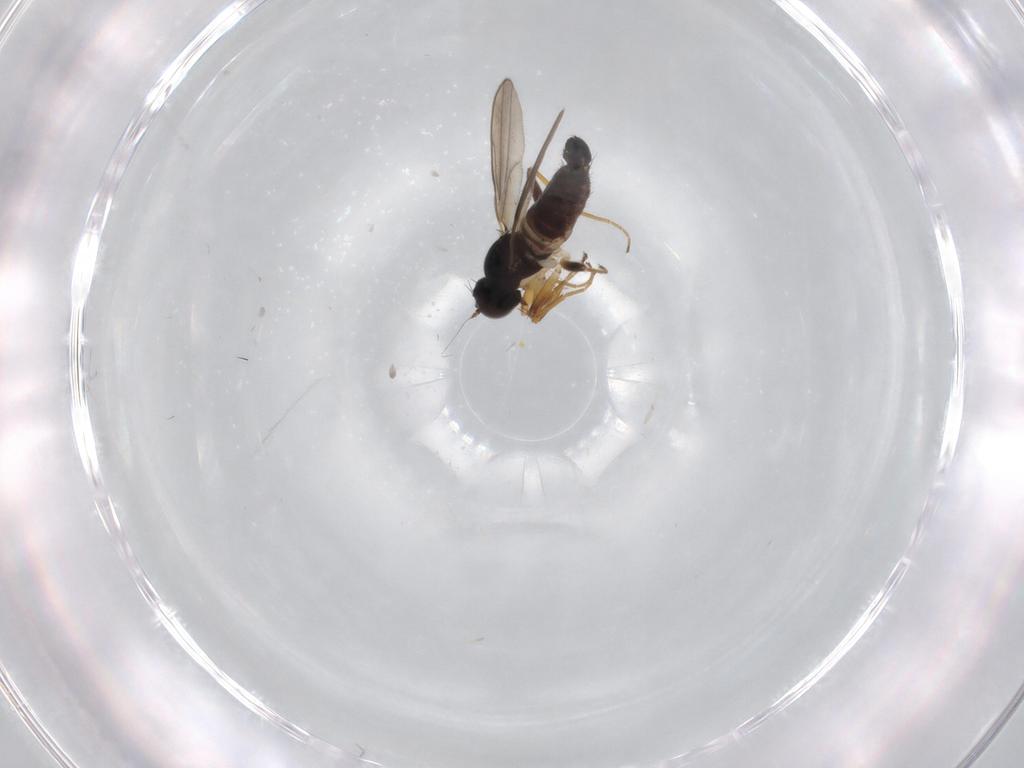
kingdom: Animalia
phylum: Arthropoda
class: Insecta
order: Diptera
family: Hybotidae
